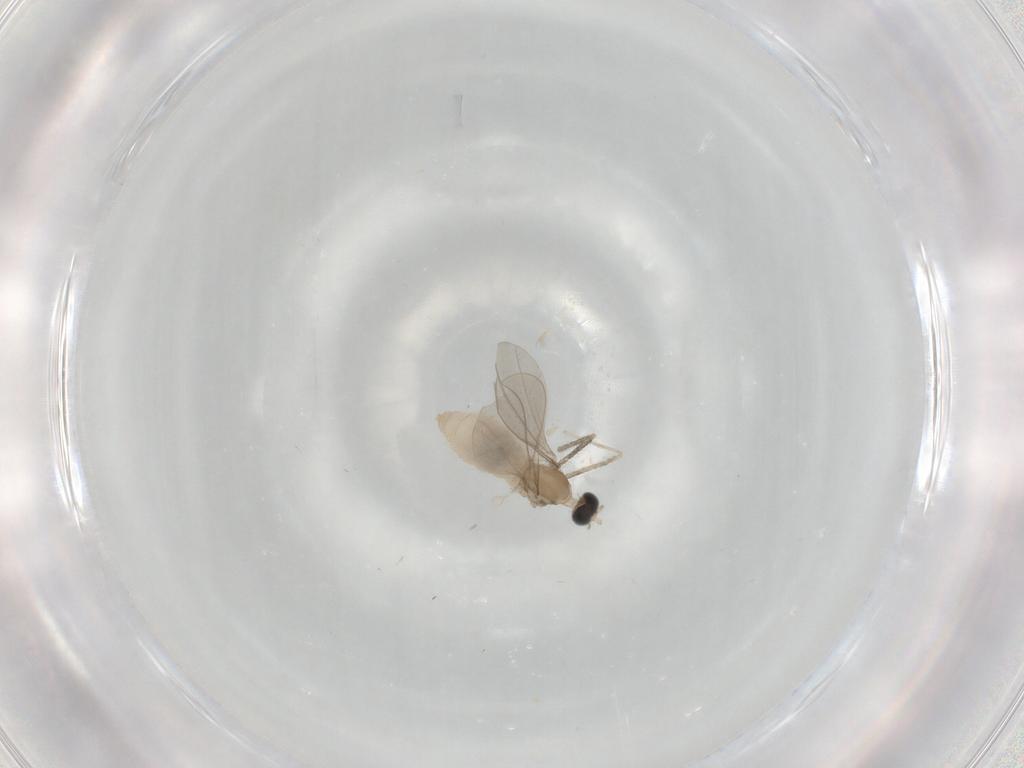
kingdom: Animalia
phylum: Arthropoda
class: Insecta
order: Diptera
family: Cecidomyiidae
